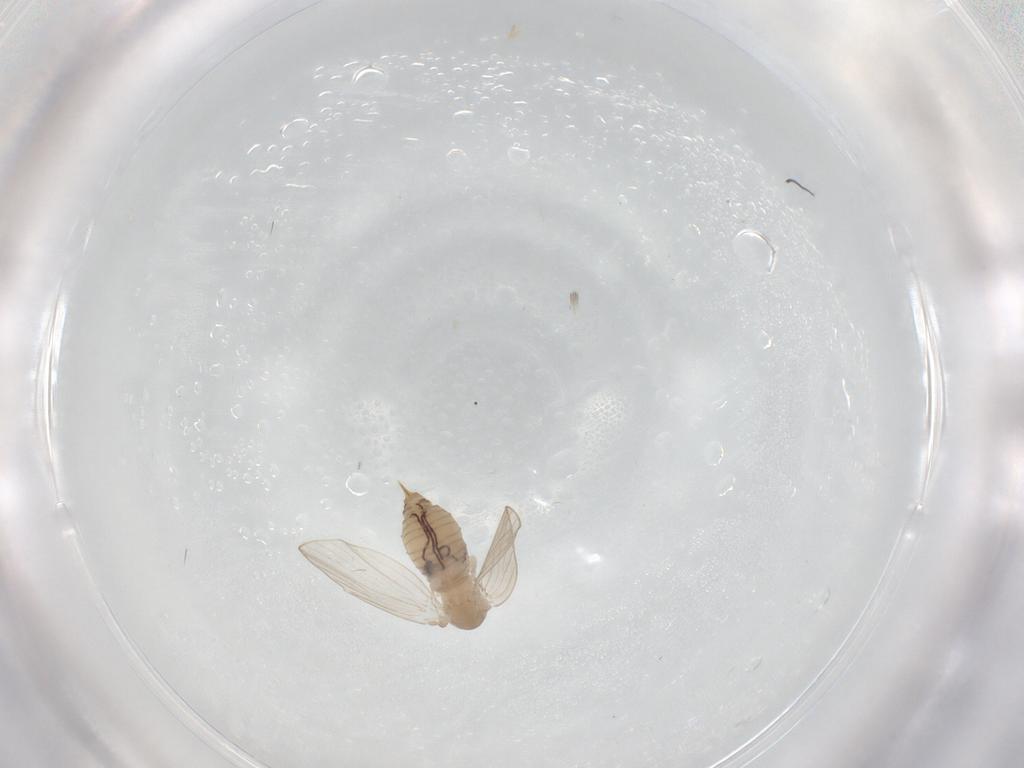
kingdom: Animalia
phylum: Arthropoda
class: Insecta
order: Diptera
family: Psychodidae
